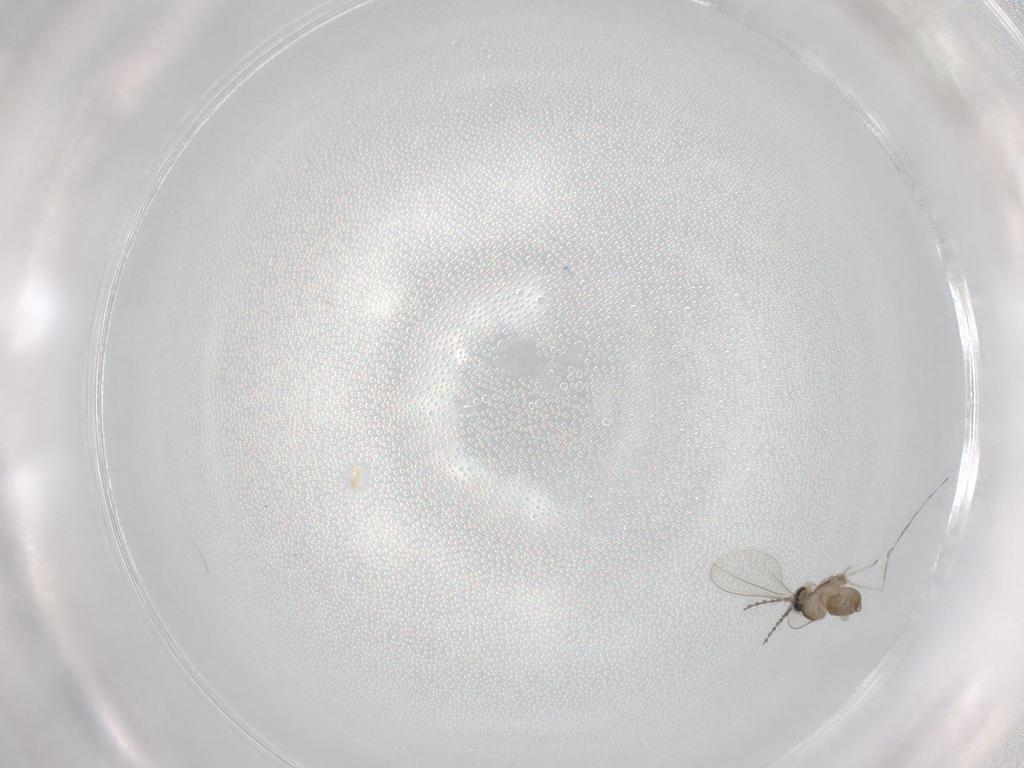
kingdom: Animalia
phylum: Arthropoda
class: Insecta
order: Diptera
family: Cecidomyiidae
